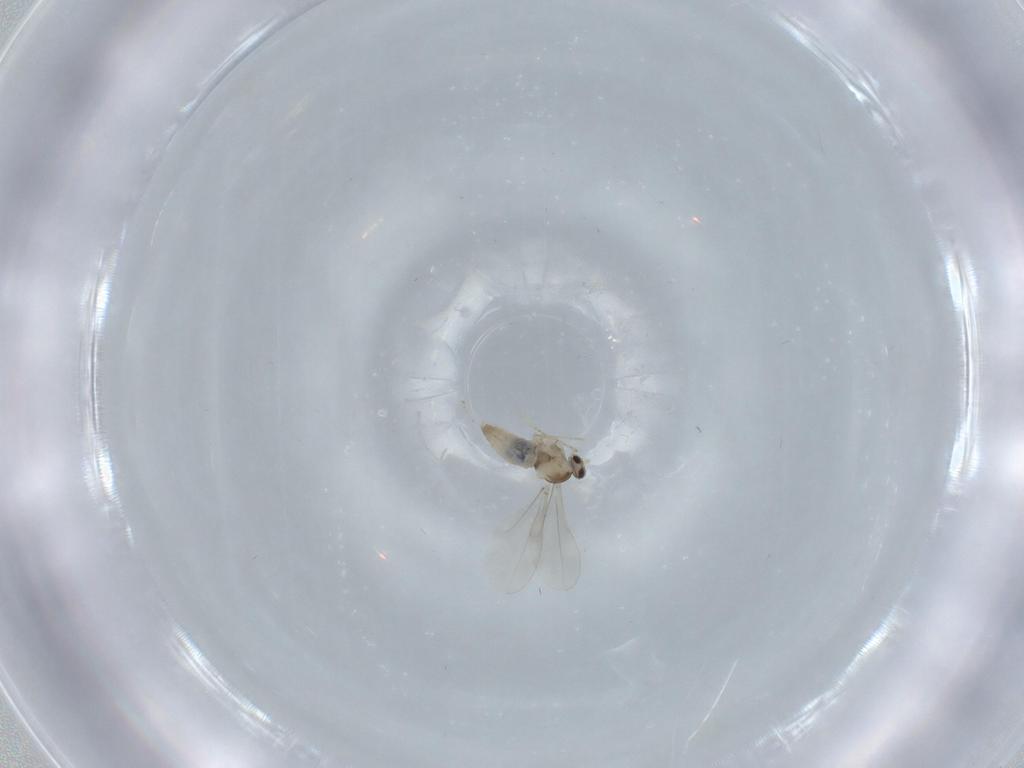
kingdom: Animalia
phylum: Arthropoda
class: Insecta
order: Diptera
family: Cecidomyiidae
